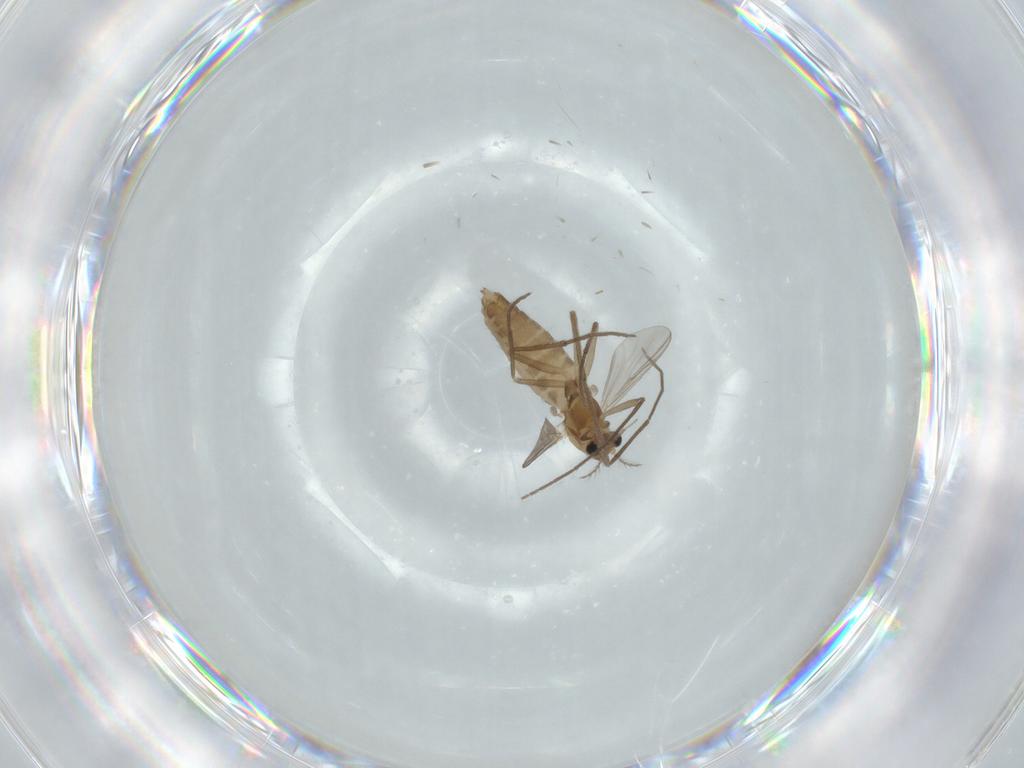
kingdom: Animalia
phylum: Arthropoda
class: Insecta
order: Diptera
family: Chironomidae
